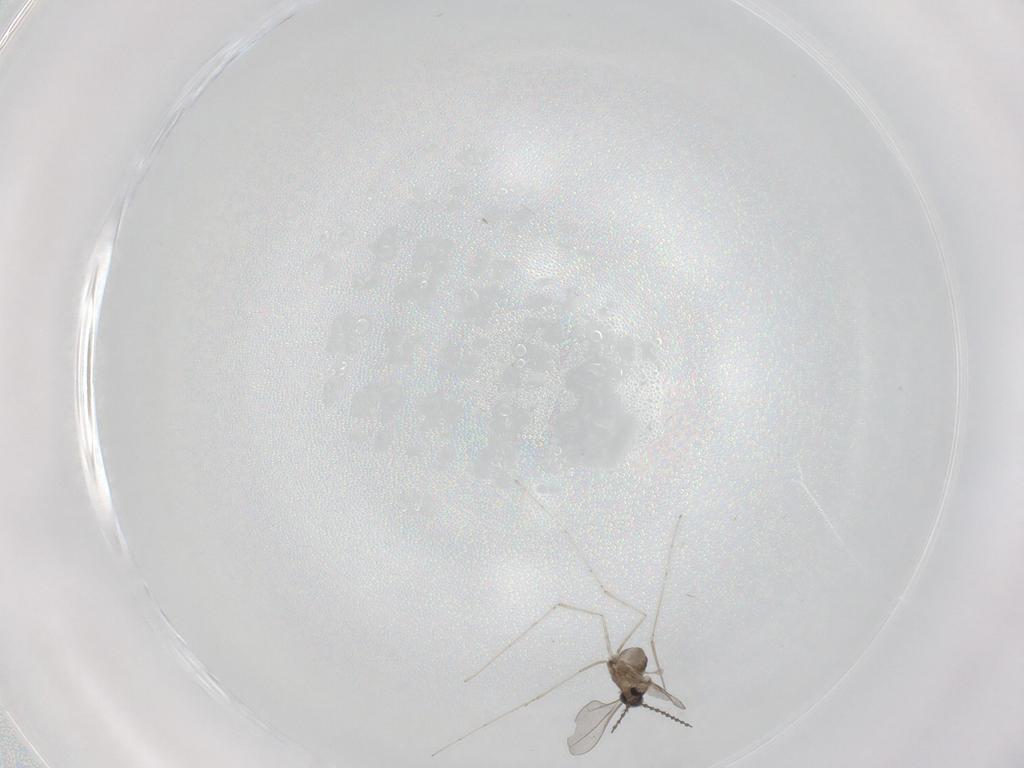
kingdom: Animalia
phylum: Arthropoda
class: Insecta
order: Diptera
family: Cecidomyiidae
